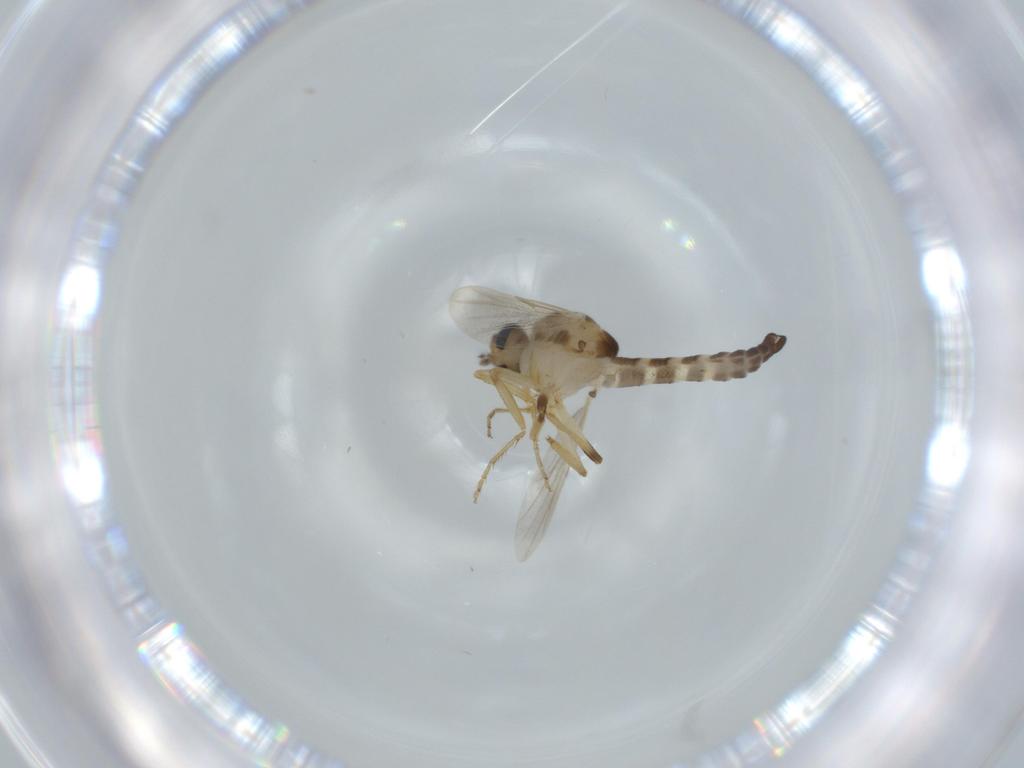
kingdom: Animalia
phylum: Arthropoda
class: Insecta
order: Diptera
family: Ceratopogonidae
